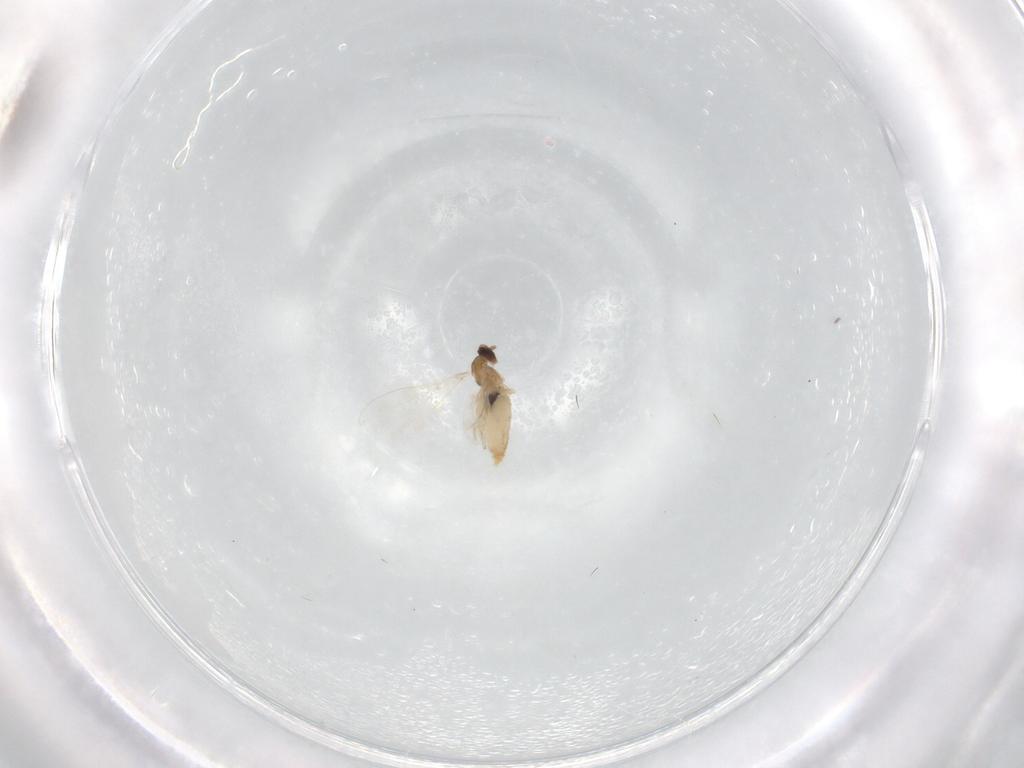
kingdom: Animalia
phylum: Arthropoda
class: Insecta
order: Diptera
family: Cecidomyiidae
